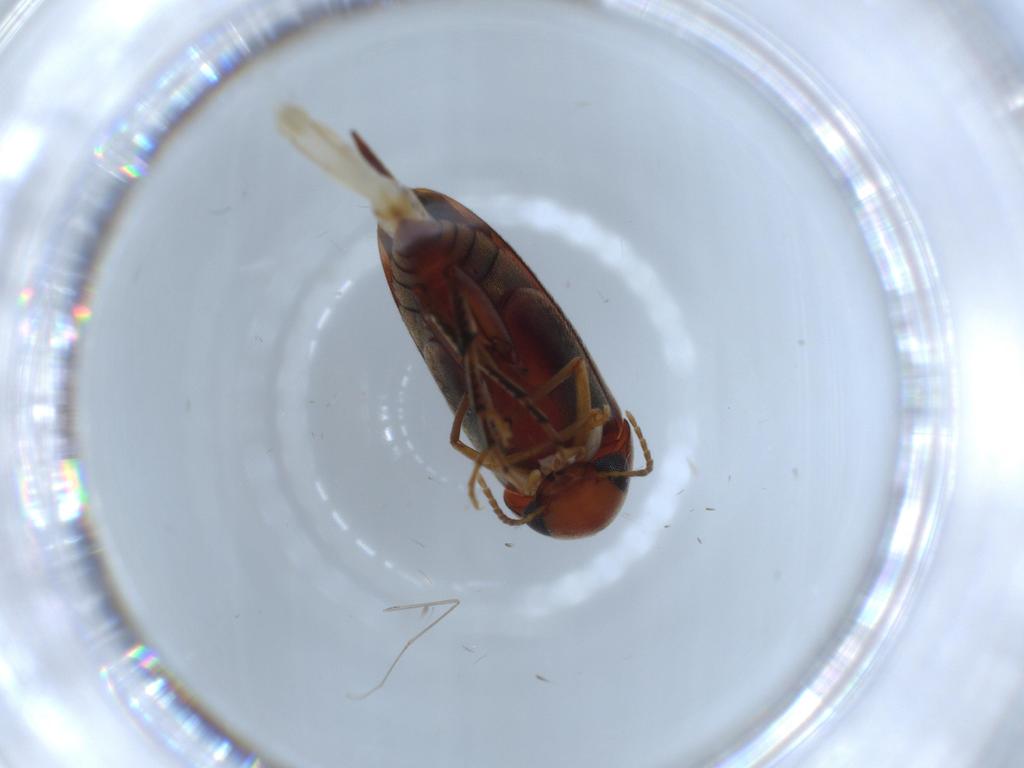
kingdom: Animalia
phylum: Arthropoda
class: Insecta
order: Coleoptera
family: Mordellidae
